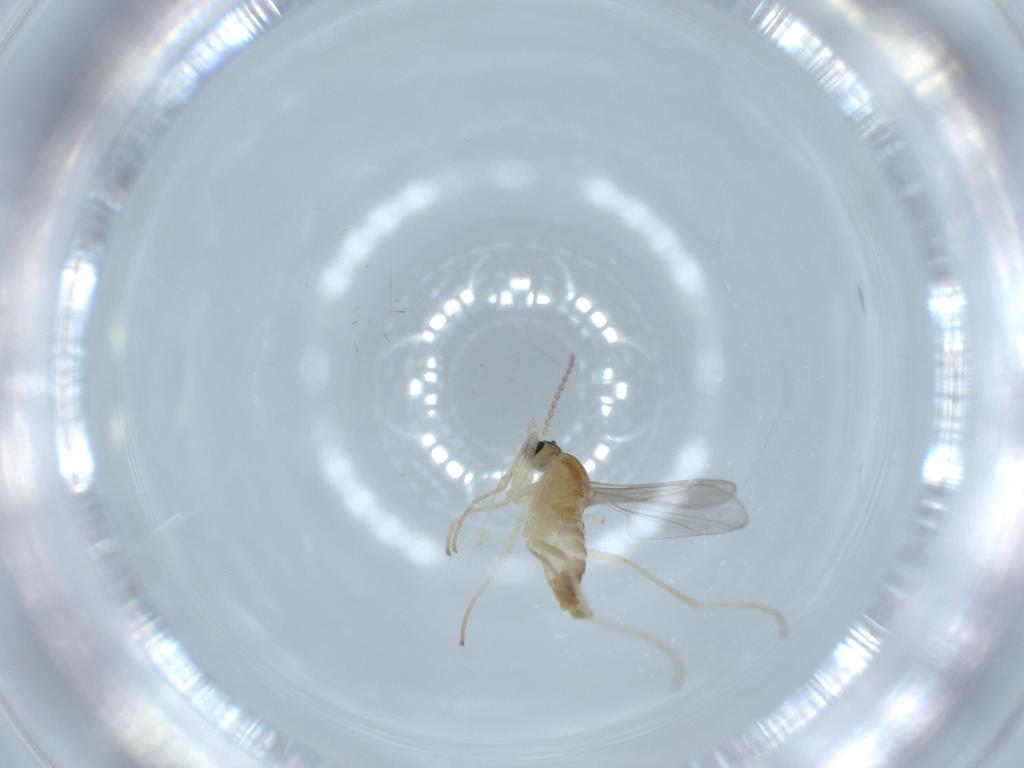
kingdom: Animalia
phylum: Arthropoda
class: Insecta
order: Diptera
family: Cecidomyiidae
